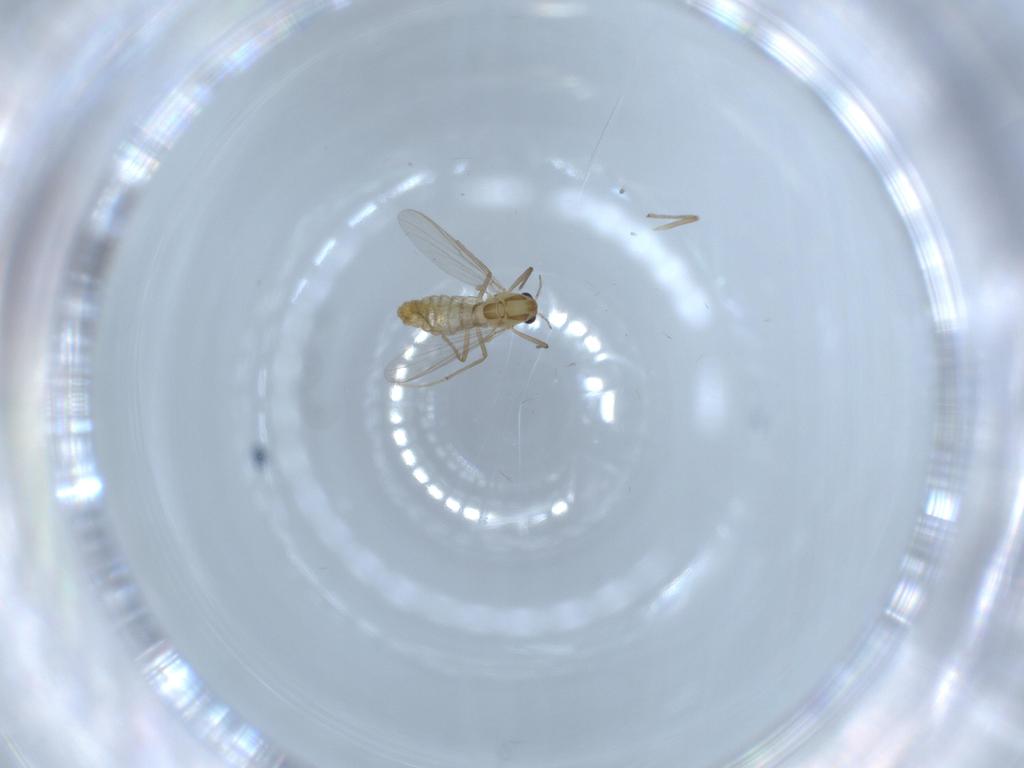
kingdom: Animalia
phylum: Arthropoda
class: Insecta
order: Diptera
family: Chironomidae
